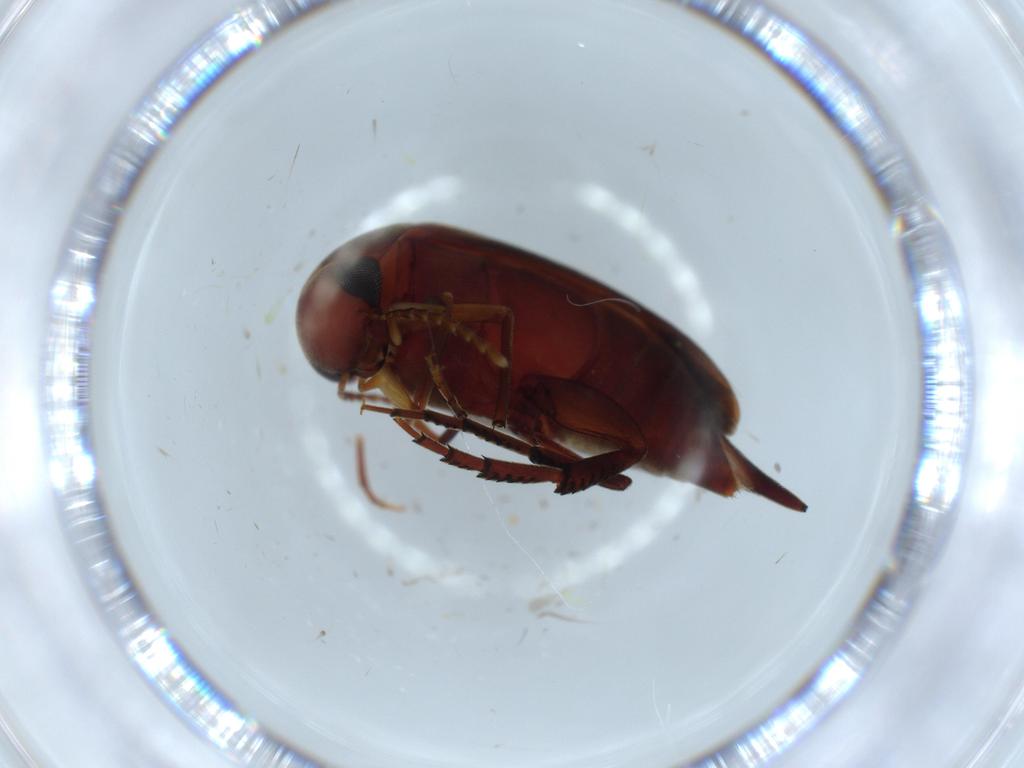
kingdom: Animalia
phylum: Arthropoda
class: Insecta
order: Coleoptera
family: Mordellidae
